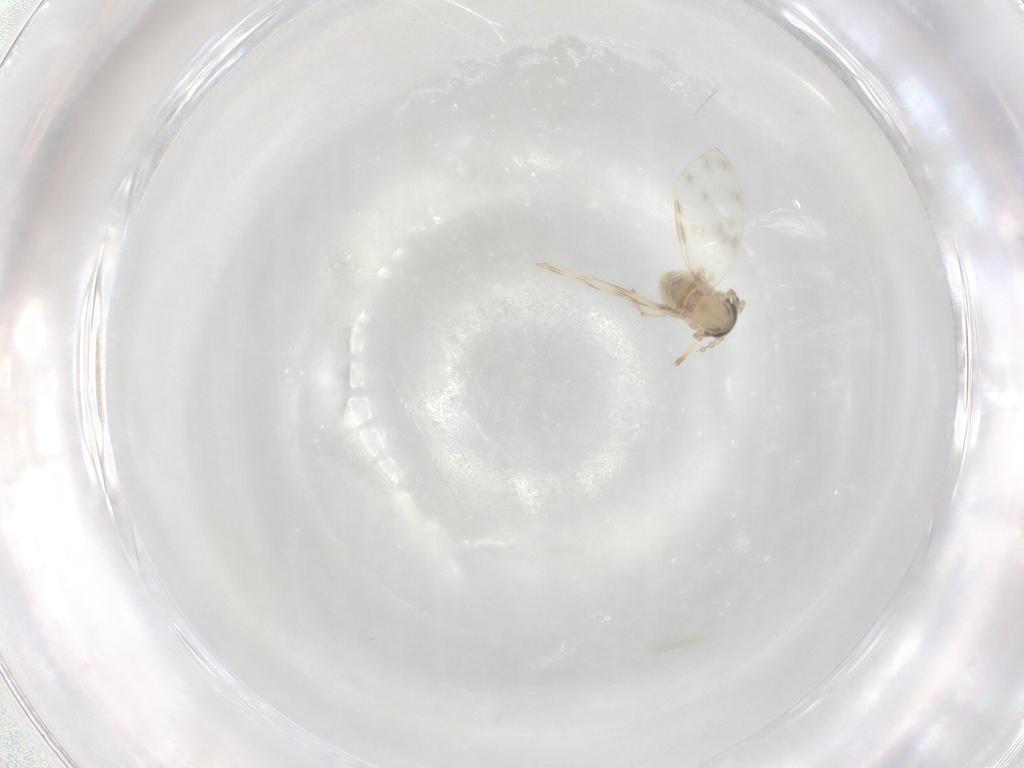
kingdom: Animalia
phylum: Arthropoda
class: Insecta
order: Diptera
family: Psychodidae
